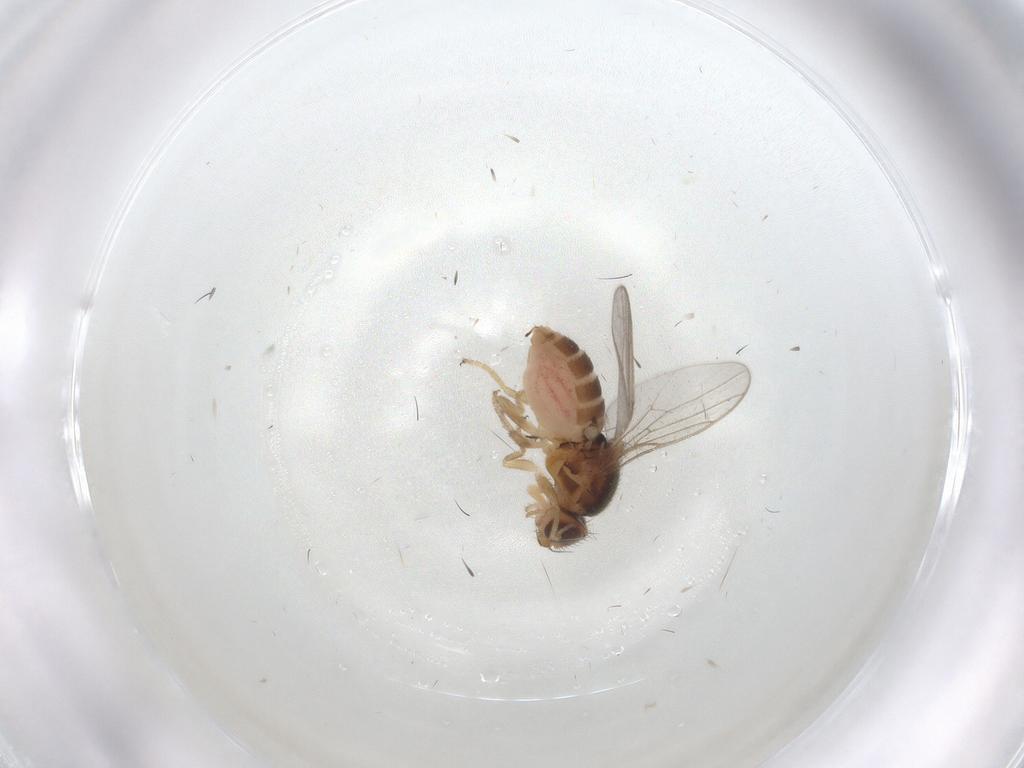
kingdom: Animalia
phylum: Arthropoda
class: Insecta
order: Diptera
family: Chloropidae
